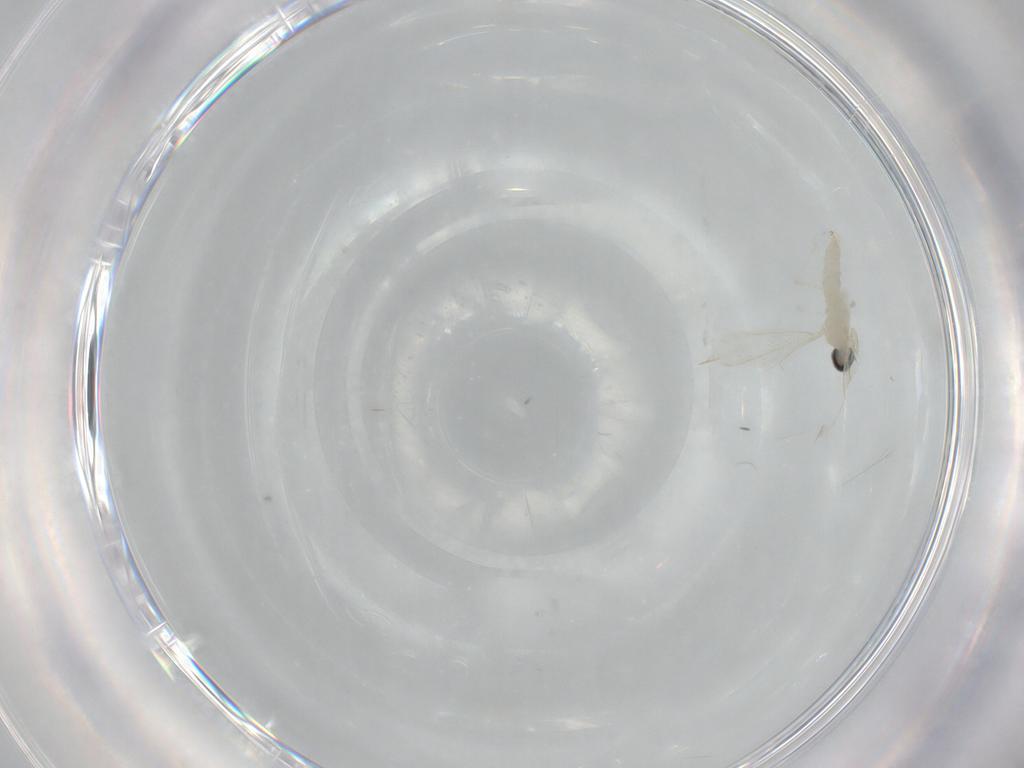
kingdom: Animalia
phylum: Arthropoda
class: Insecta
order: Diptera
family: Cecidomyiidae
